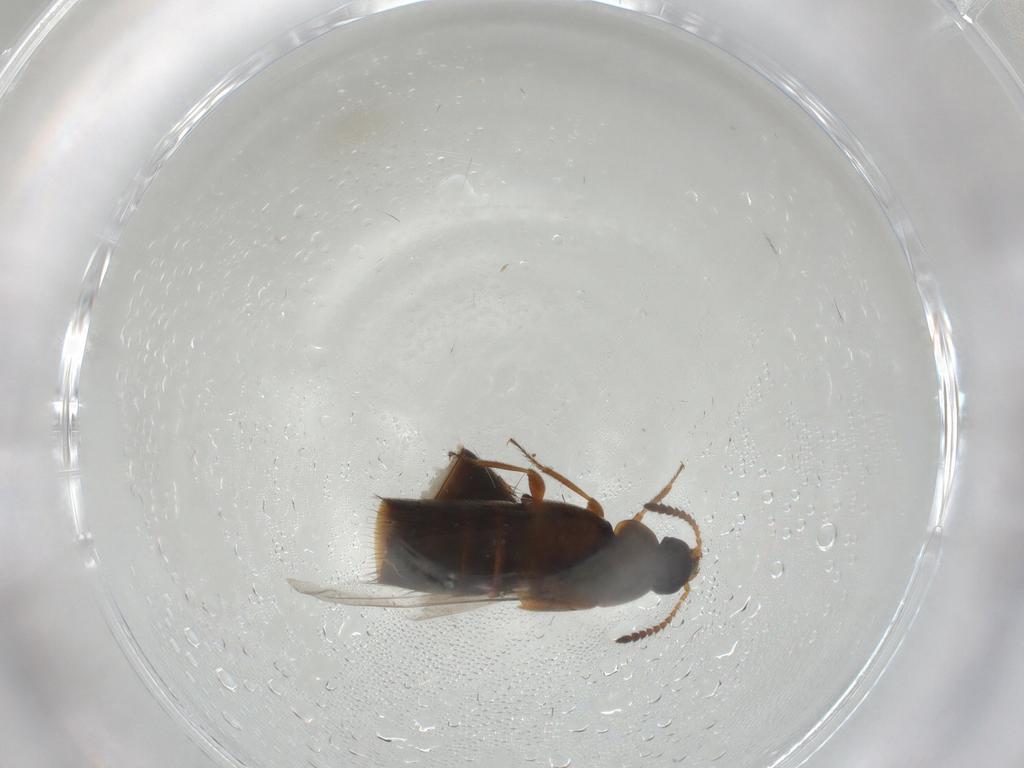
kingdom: Animalia
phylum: Arthropoda
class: Insecta
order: Coleoptera
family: Staphylinidae
